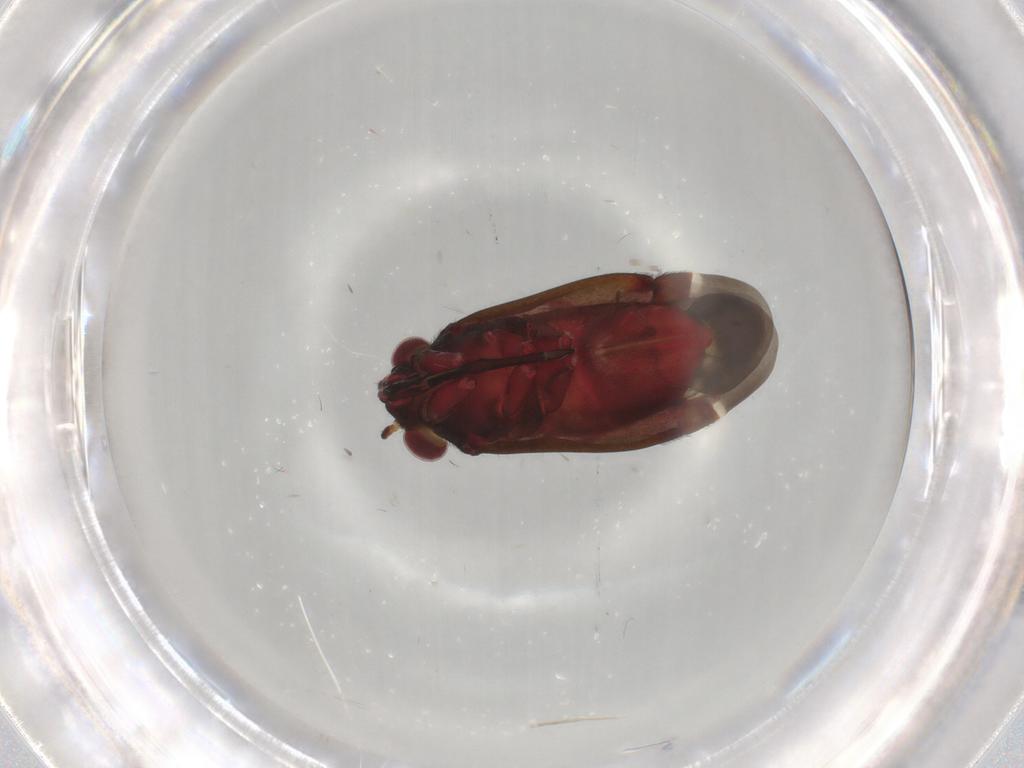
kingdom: Animalia
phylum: Arthropoda
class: Insecta
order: Hemiptera
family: Miridae
